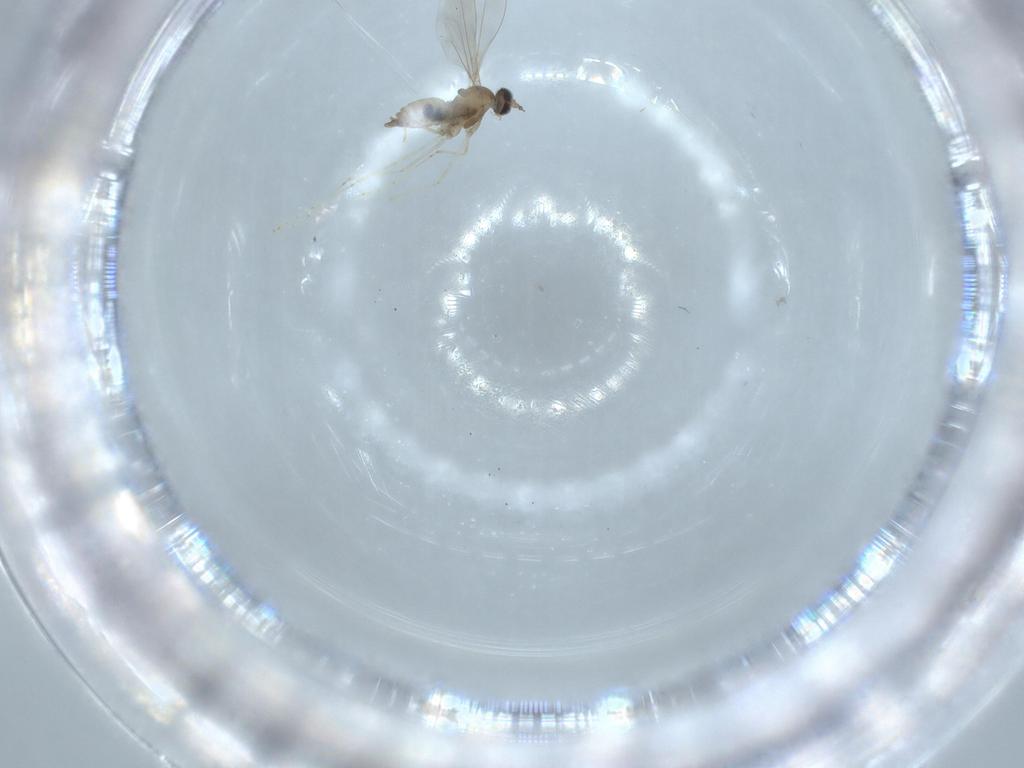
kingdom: Animalia
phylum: Arthropoda
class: Insecta
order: Diptera
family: Cecidomyiidae
